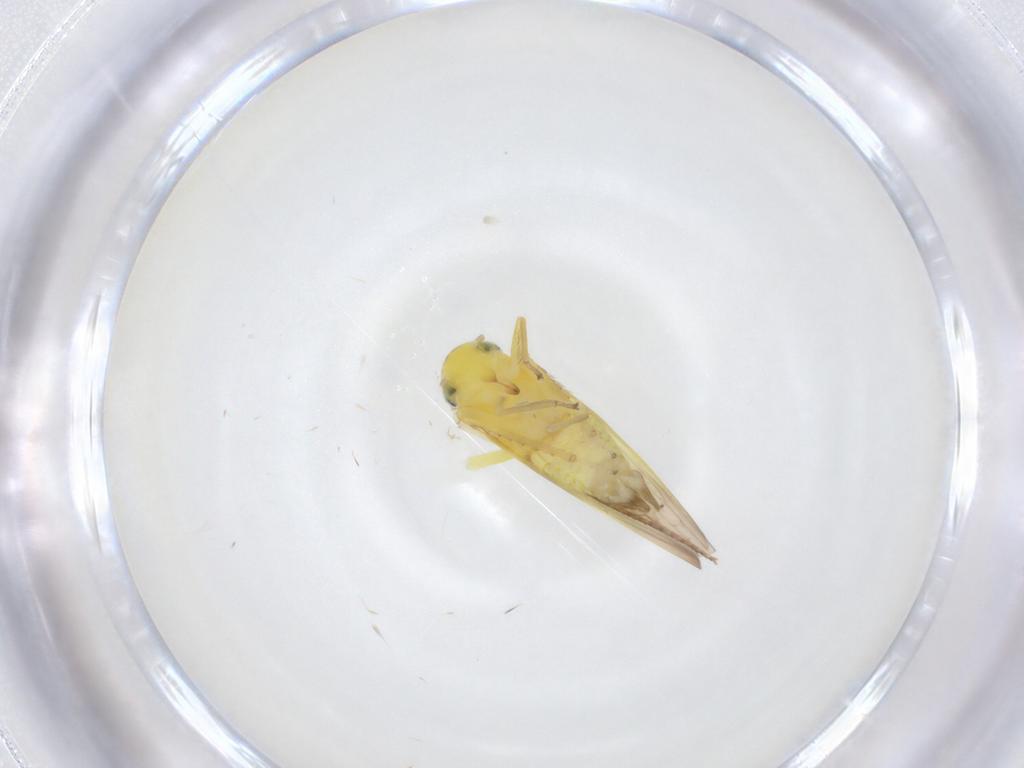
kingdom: Animalia
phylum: Arthropoda
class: Insecta
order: Hemiptera
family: Cicadellidae
